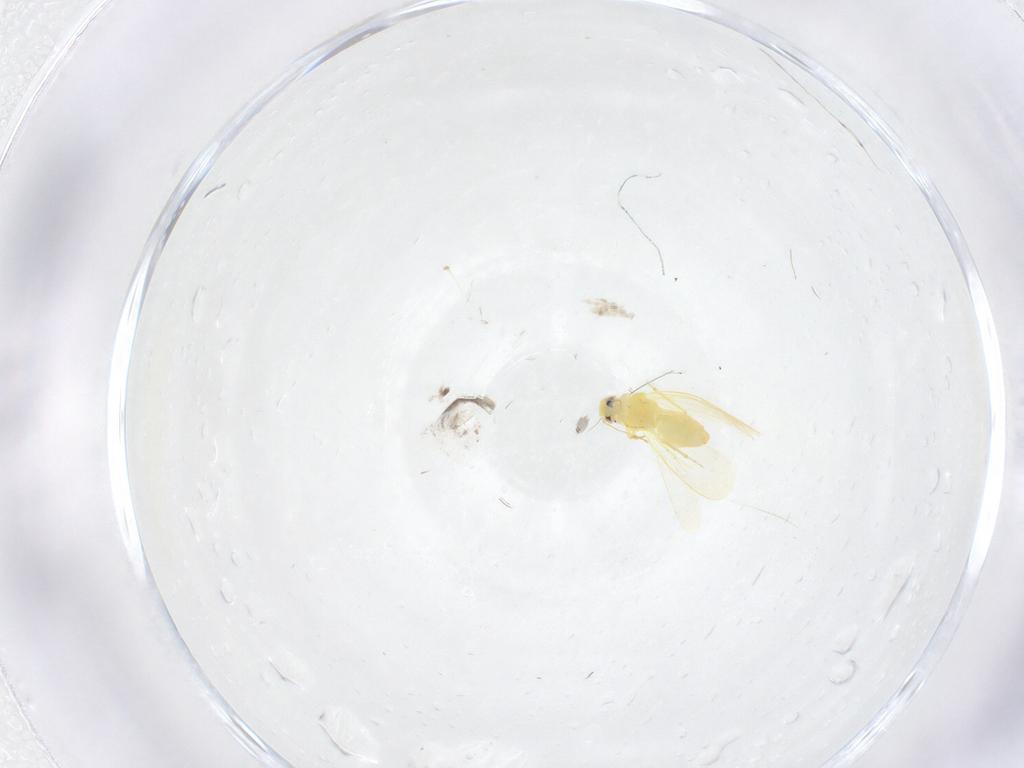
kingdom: Animalia
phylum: Arthropoda
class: Insecta
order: Hemiptera
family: Aleyrodidae
